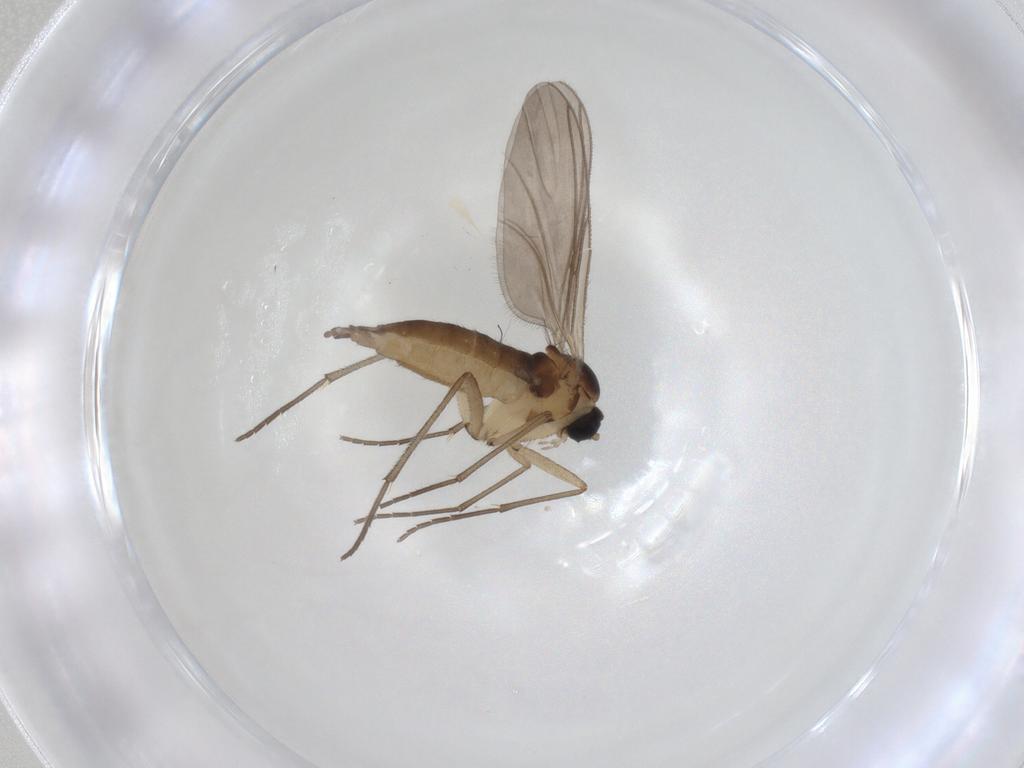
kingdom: Animalia
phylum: Arthropoda
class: Insecta
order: Diptera
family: Sciaridae
